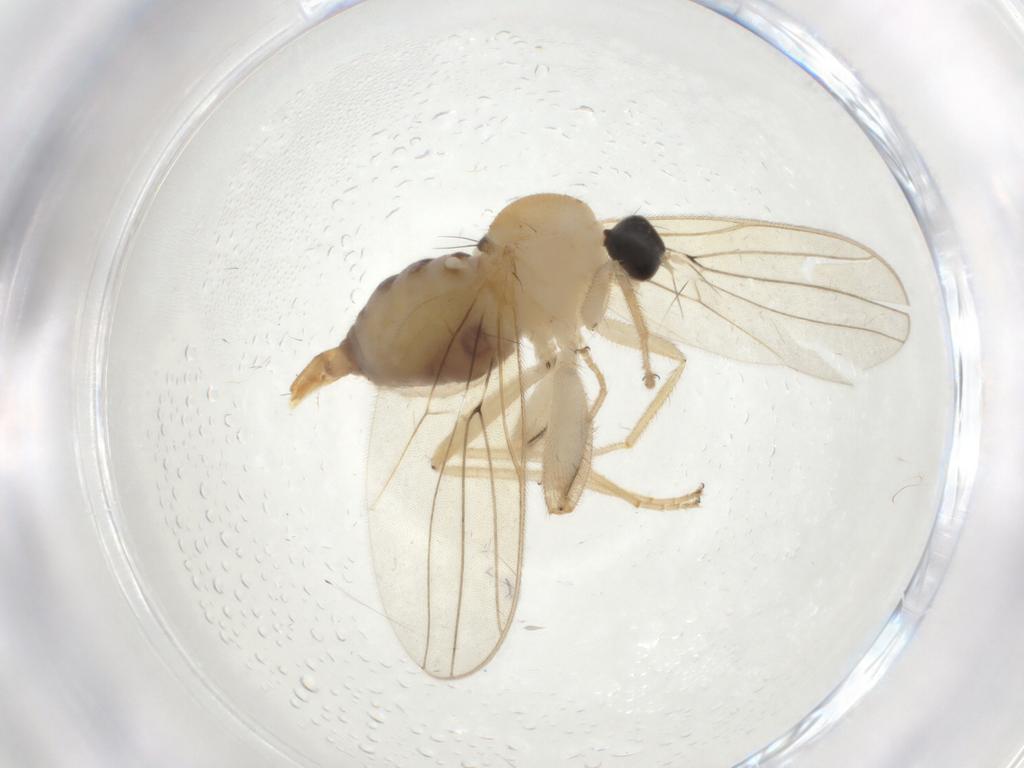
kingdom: Animalia
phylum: Arthropoda
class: Insecta
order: Diptera
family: Hybotidae
